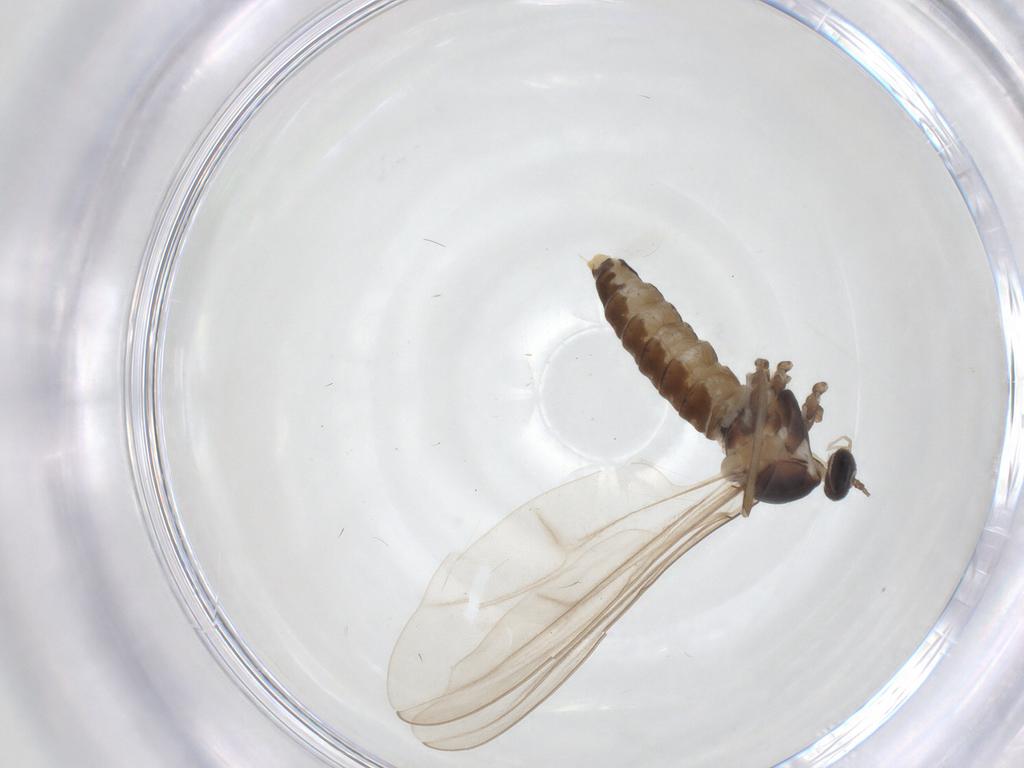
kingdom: Animalia
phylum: Arthropoda
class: Insecta
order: Diptera
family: Cecidomyiidae
